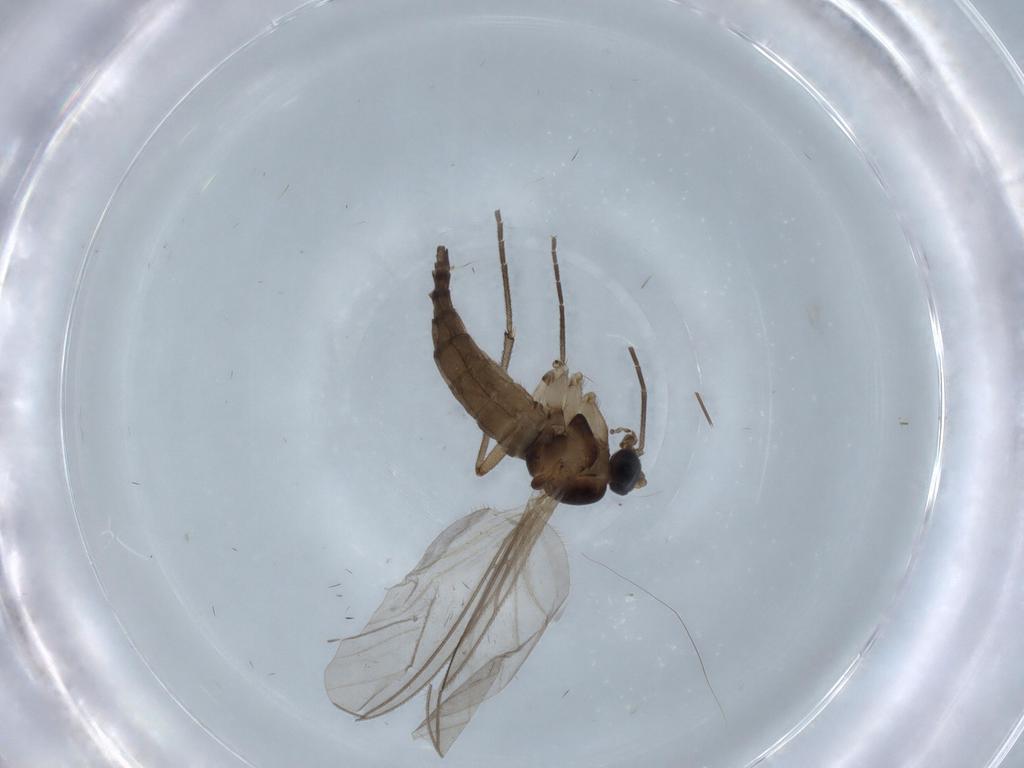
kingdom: Animalia
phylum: Arthropoda
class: Insecta
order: Diptera
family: Sciaridae
